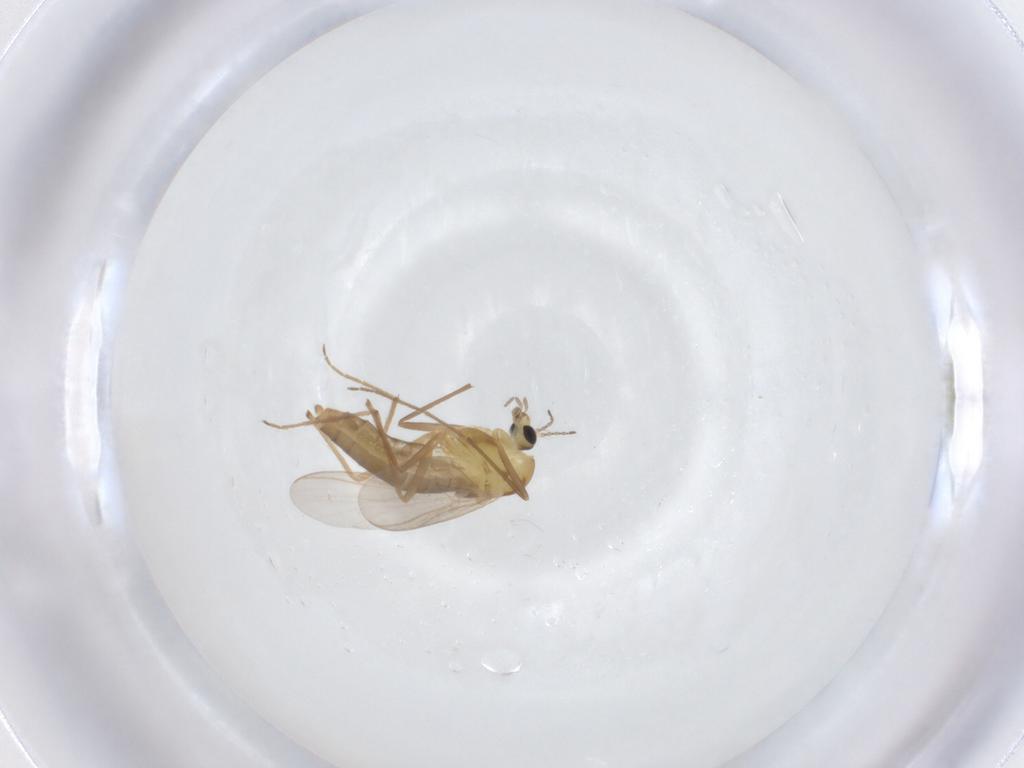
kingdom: Animalia
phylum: Arthropoda
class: Insecta
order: Diptera
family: Chironomidae
